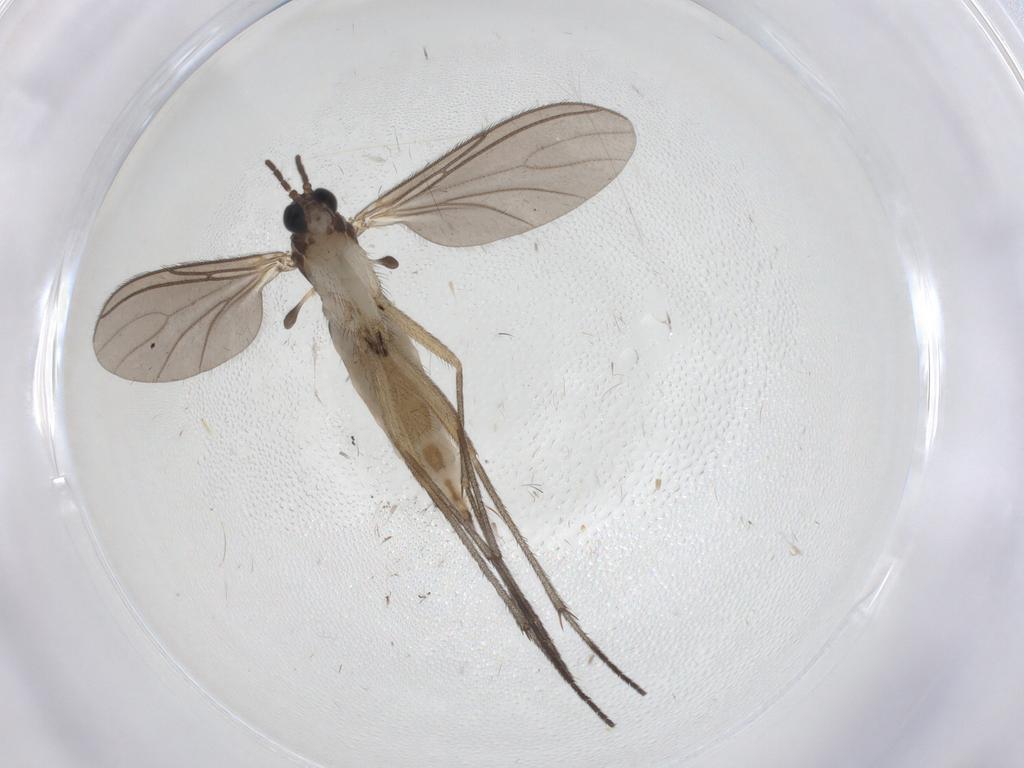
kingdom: Animalia
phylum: Arthropoda
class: Insecta
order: Diptera
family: Sciaridae
